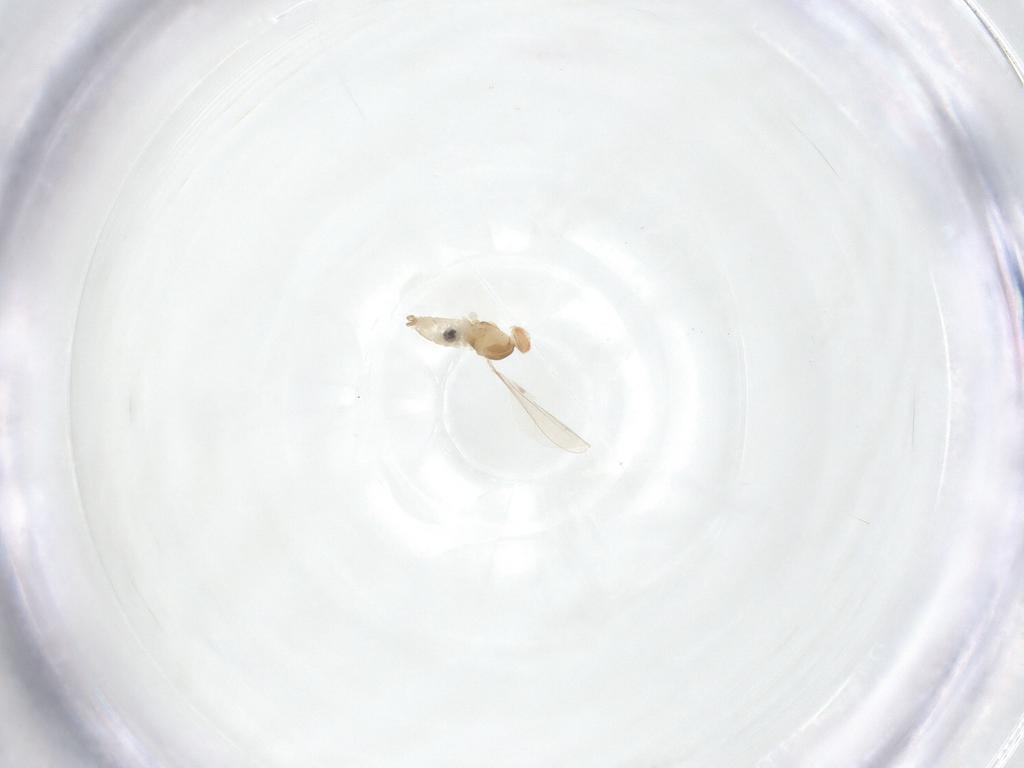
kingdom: Animalia
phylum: Arthropoda
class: Insecta
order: Diptera
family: Cecidomyiidae
